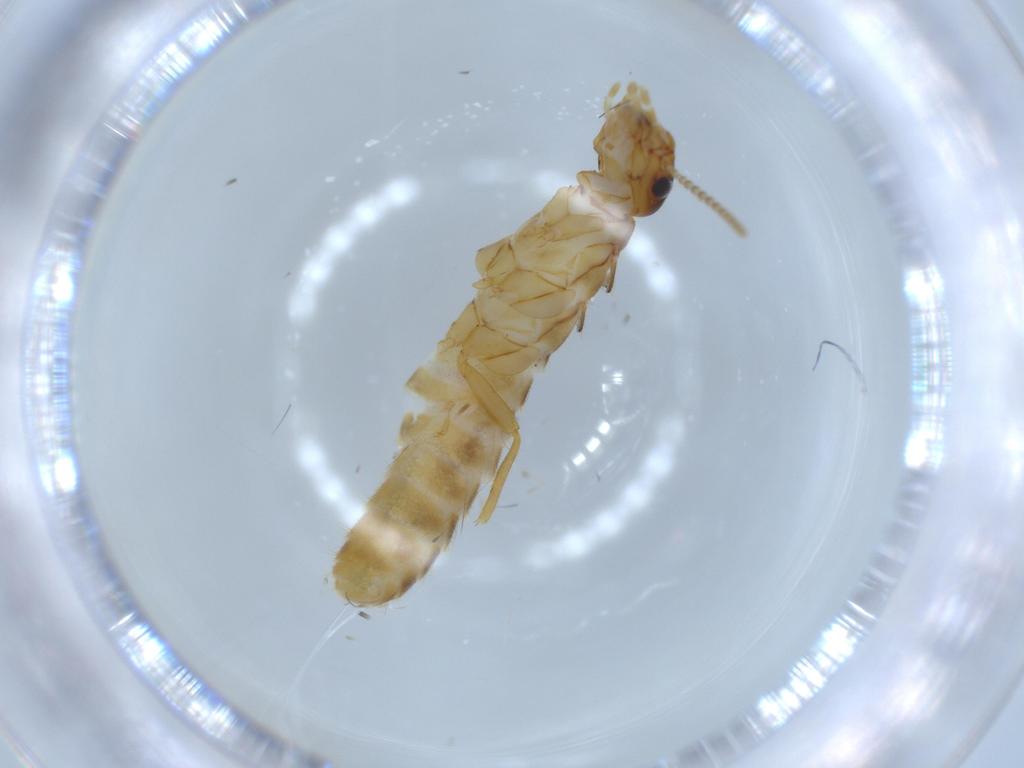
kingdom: Animalia
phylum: Arthropoda
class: Insecta
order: Blattodea
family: Termitidae
